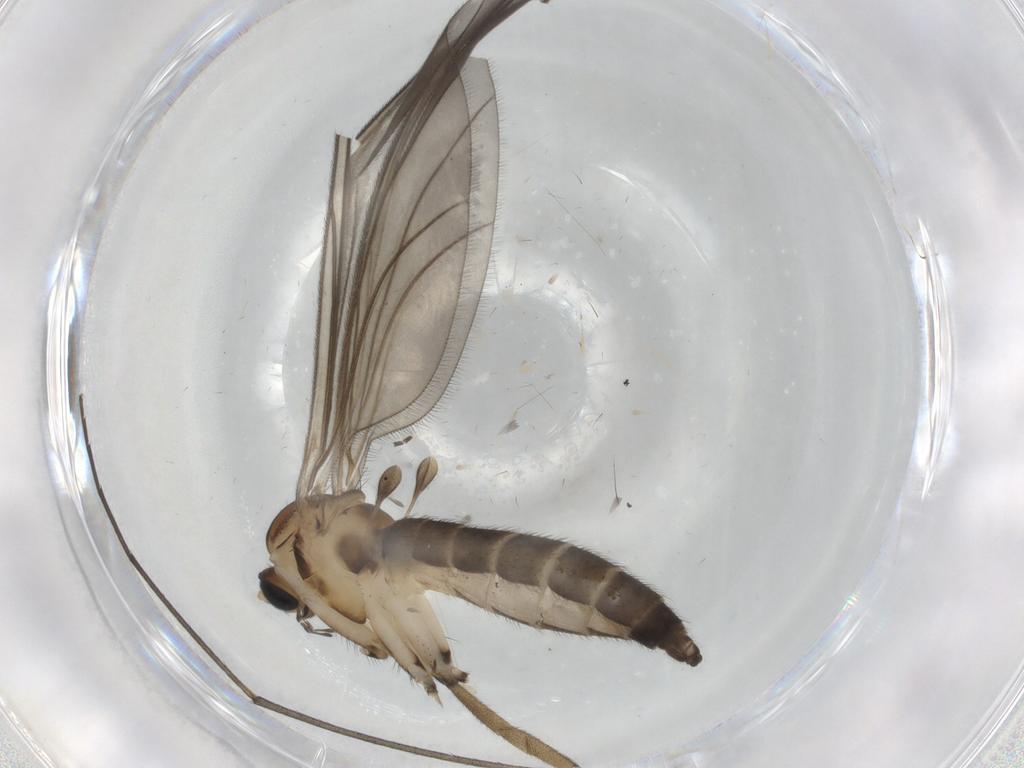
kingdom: Animalia
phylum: Arthropoda
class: Insecta
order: Diptera
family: Sciaridae
